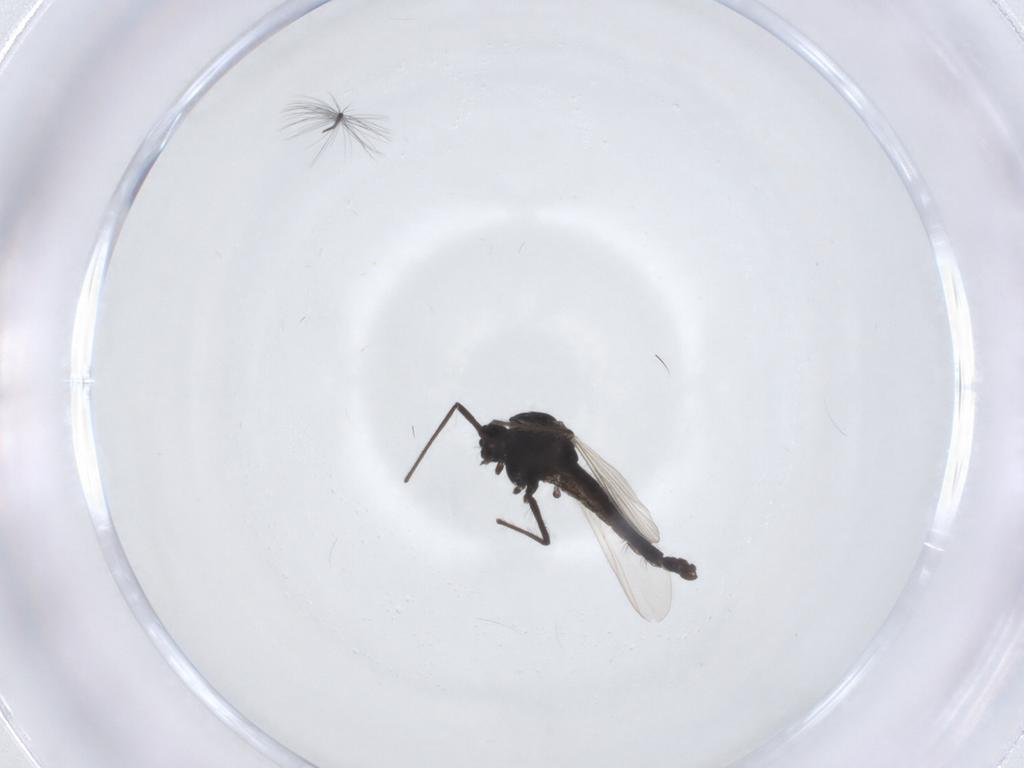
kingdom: Animalia
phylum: Arthropoda
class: Insecta
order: Diptera
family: Chironomidae
